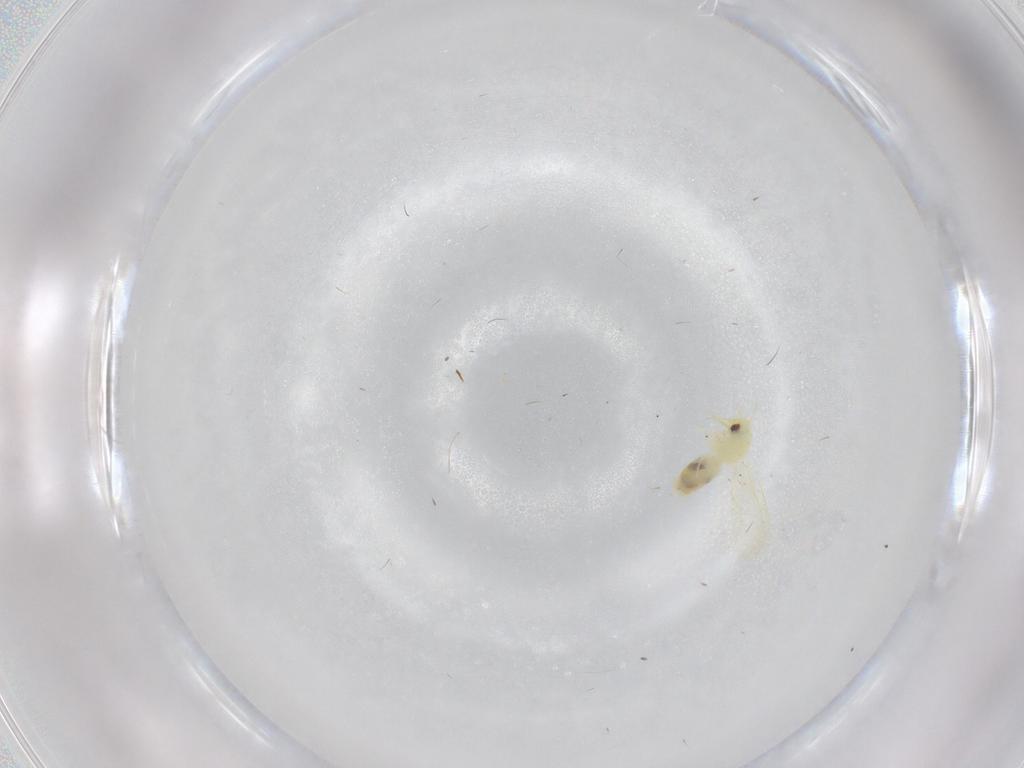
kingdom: Animalia
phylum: Arthropoda
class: Insecta
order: Hemiptera
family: Aleyrodidae
